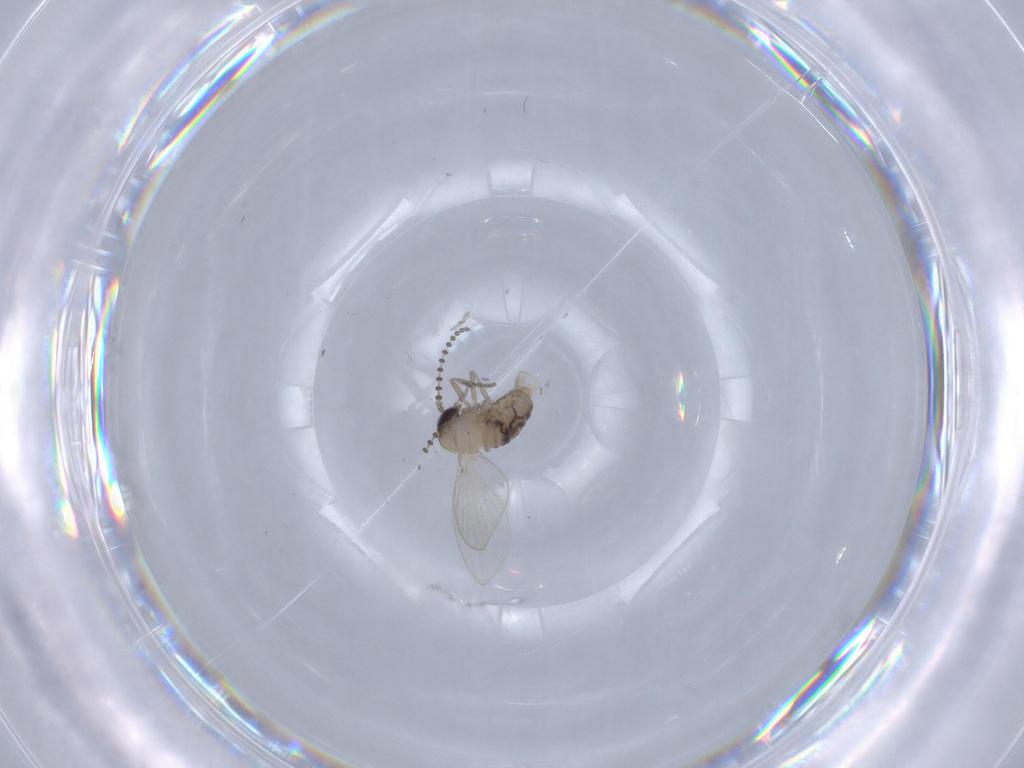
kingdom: Animalia
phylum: Arthropoda
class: Insecta
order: Diptera
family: Psychodidae
